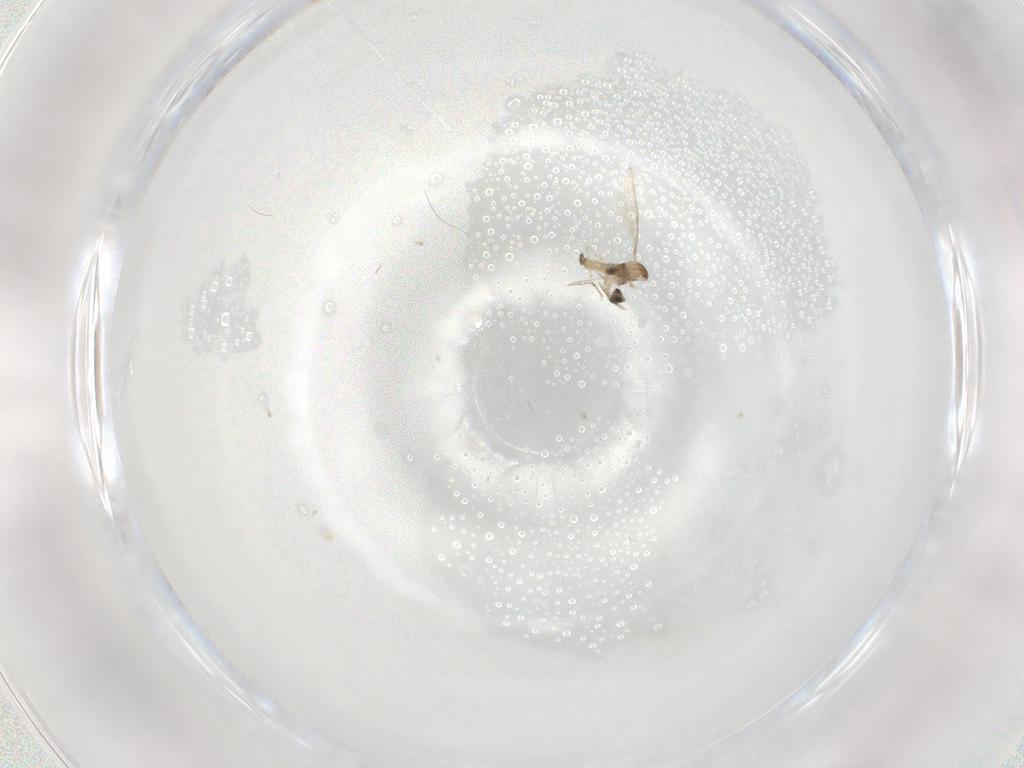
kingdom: Animalia
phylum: Arthropoda
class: Insecta
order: Diptera
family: Cecidomyiidae
